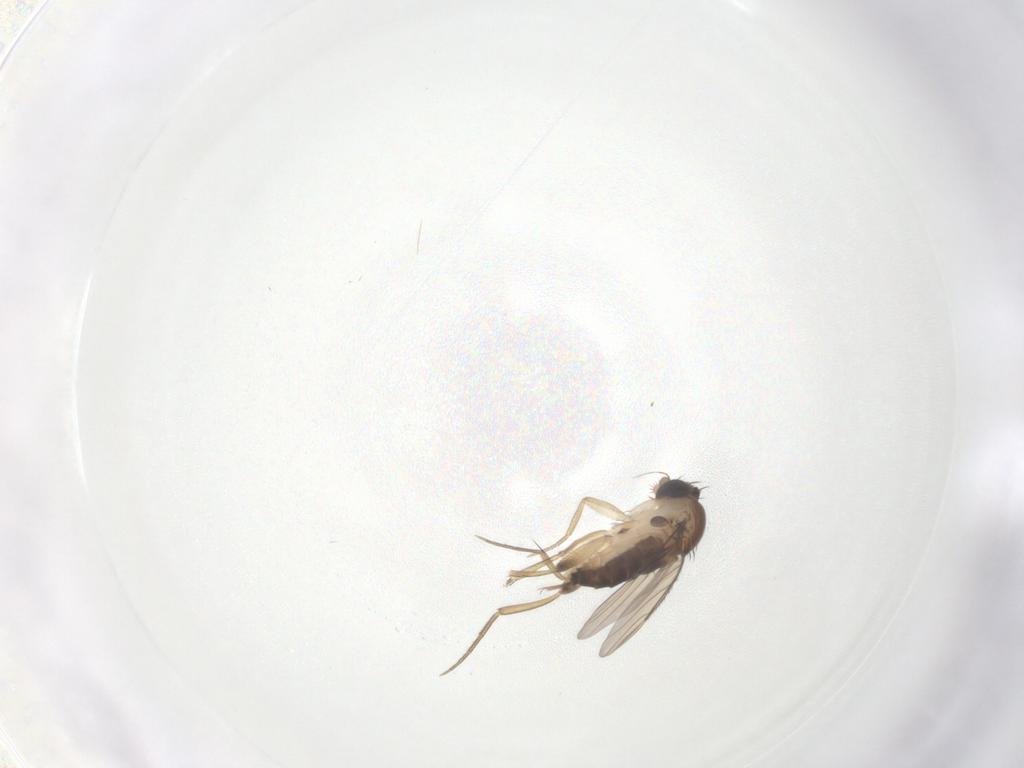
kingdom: Animalia
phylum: Arthropoda
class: Insecta
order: Diptera
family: Phoridae
